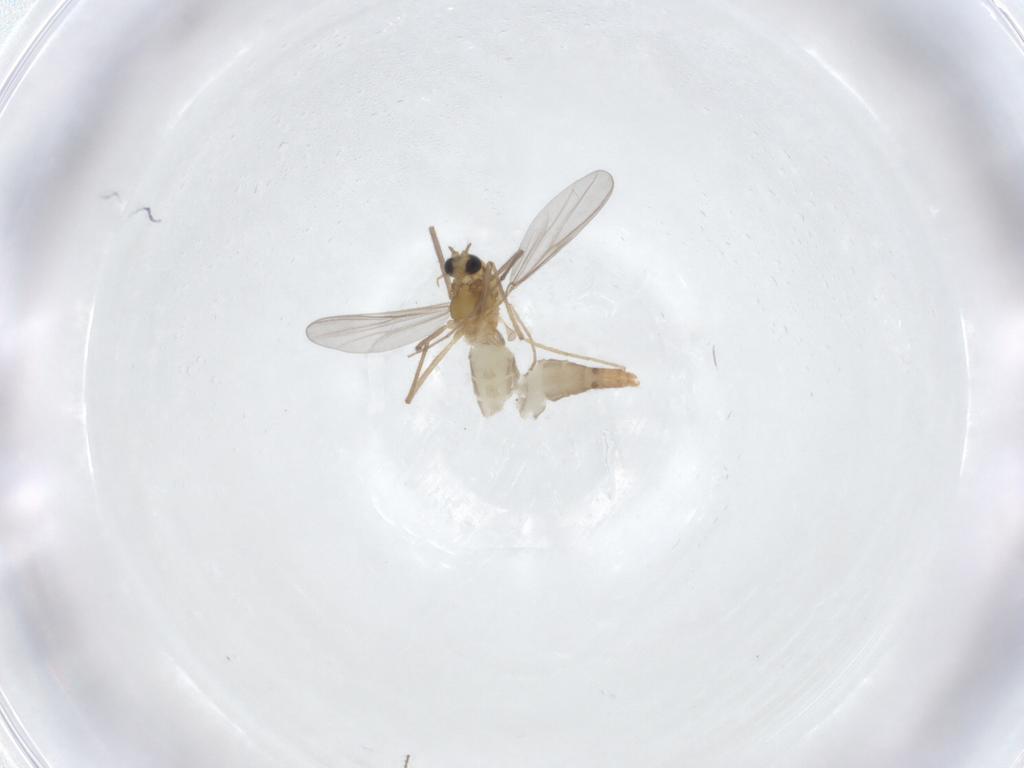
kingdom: Animalia
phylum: Arthropoda
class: Insecta
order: Diptera
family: Chironomidae
